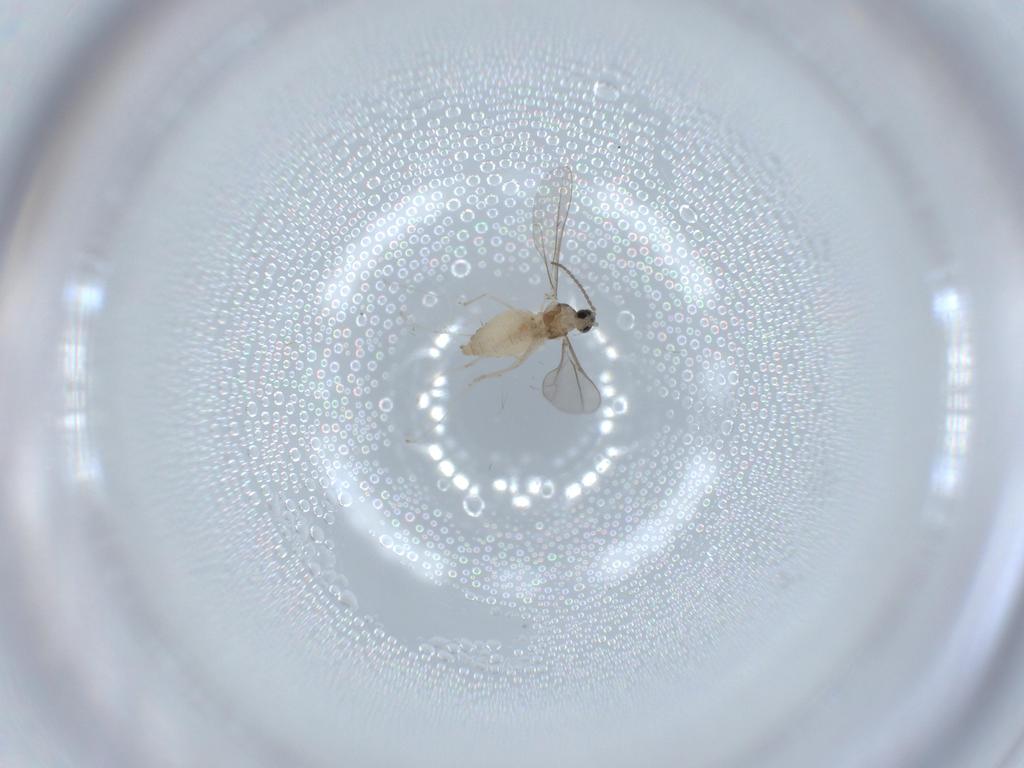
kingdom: Animalia
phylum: Arthropoda
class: Insecta
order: Diptera
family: Cecidomyiidae
